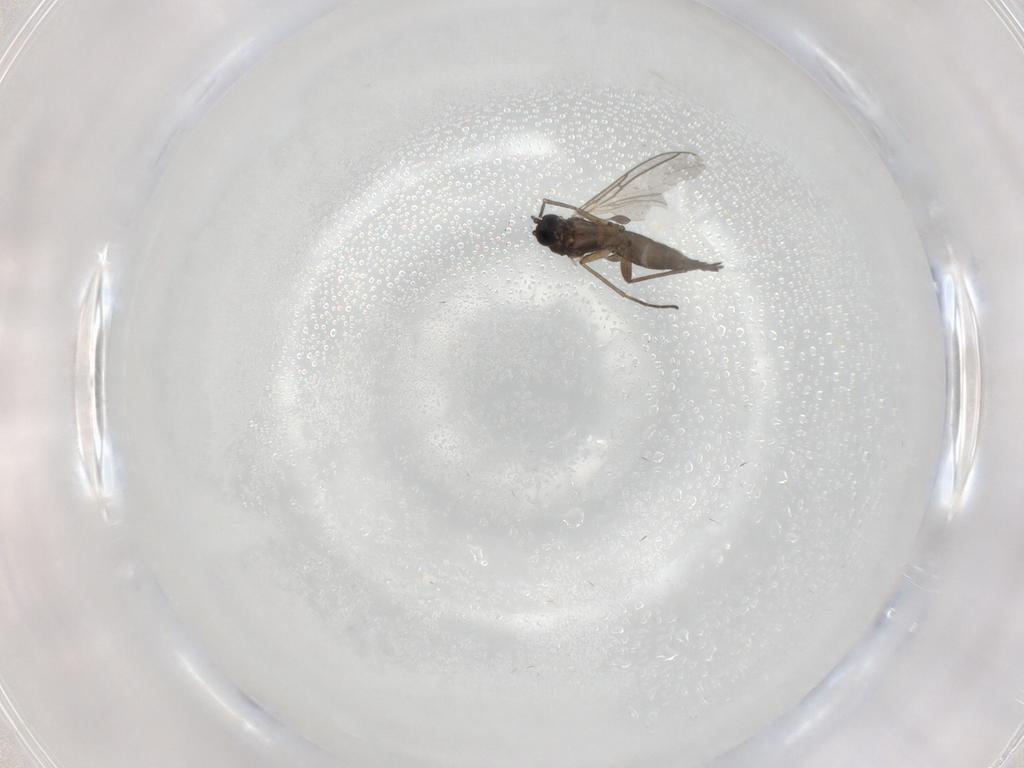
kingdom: Animalia
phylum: Arthropoda
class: Insecta
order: Diptera
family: Sciaridae
